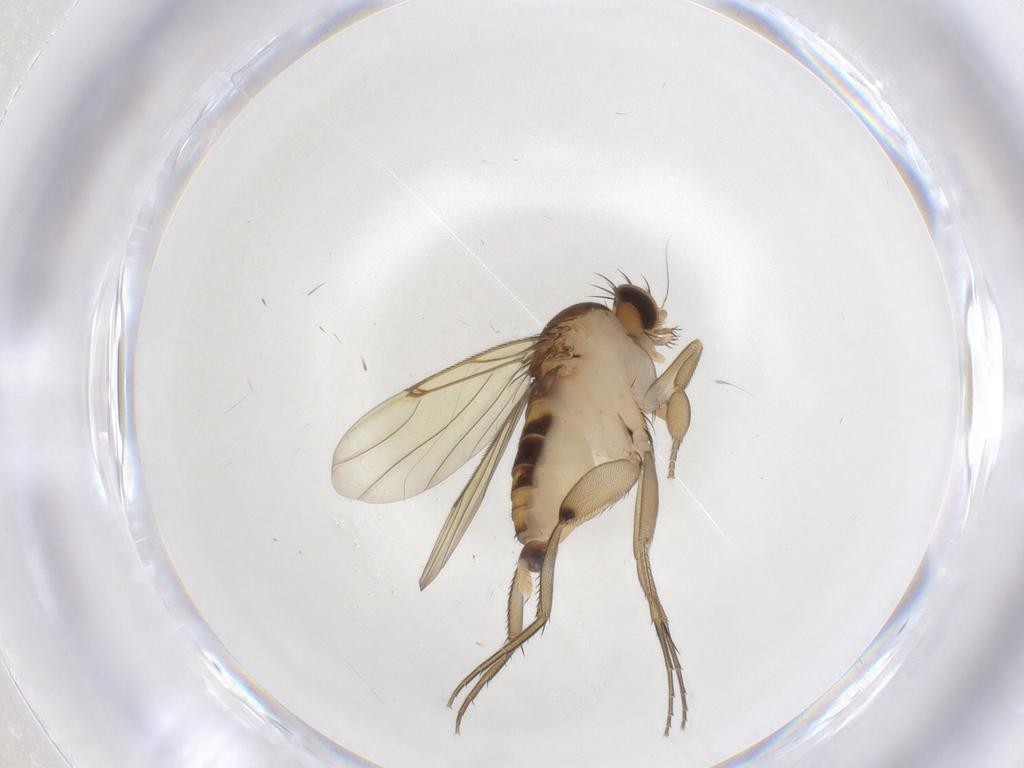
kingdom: Animalia
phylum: Arthropoda
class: Insecta
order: Diptera
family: Phoridae
